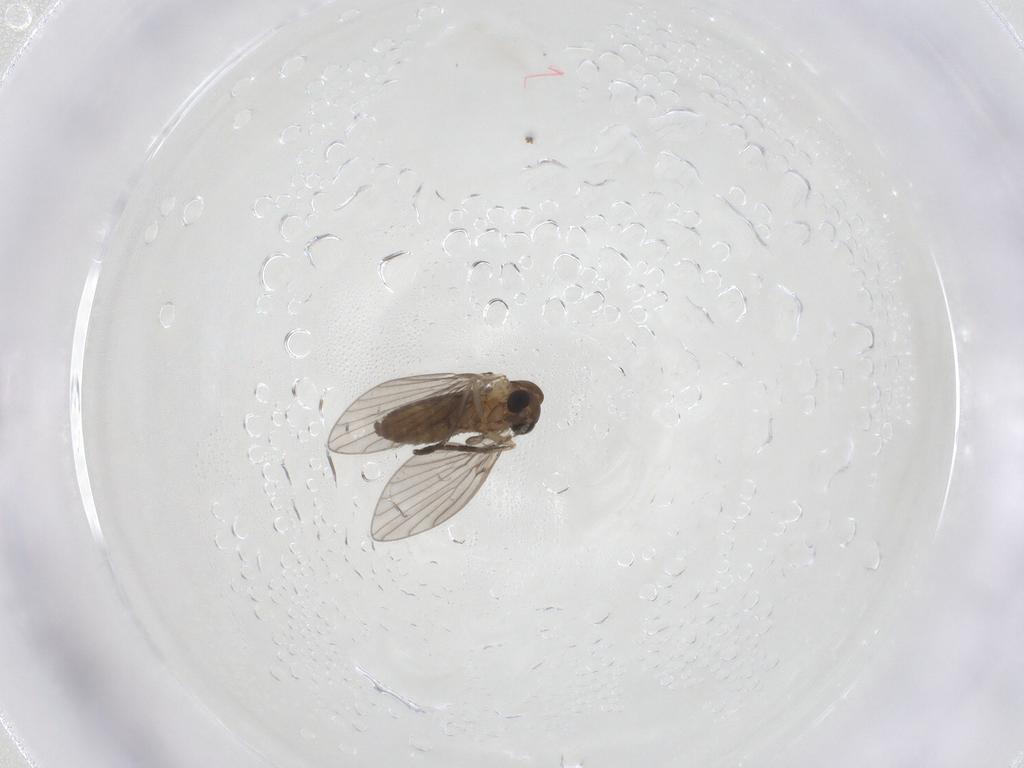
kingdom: Animalia
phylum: Arthropoda
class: Insecta
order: Diptera
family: Psychodidae
